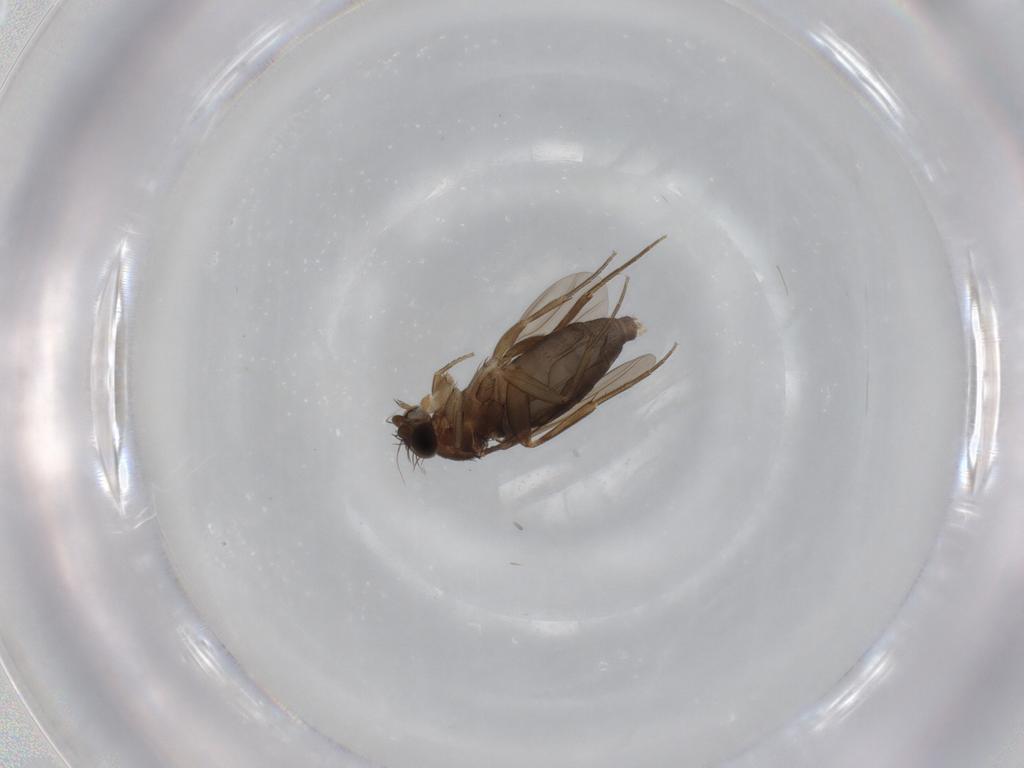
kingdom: Animalia
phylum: Arthropoda
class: Insecta
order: Diptera
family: Phoridae
